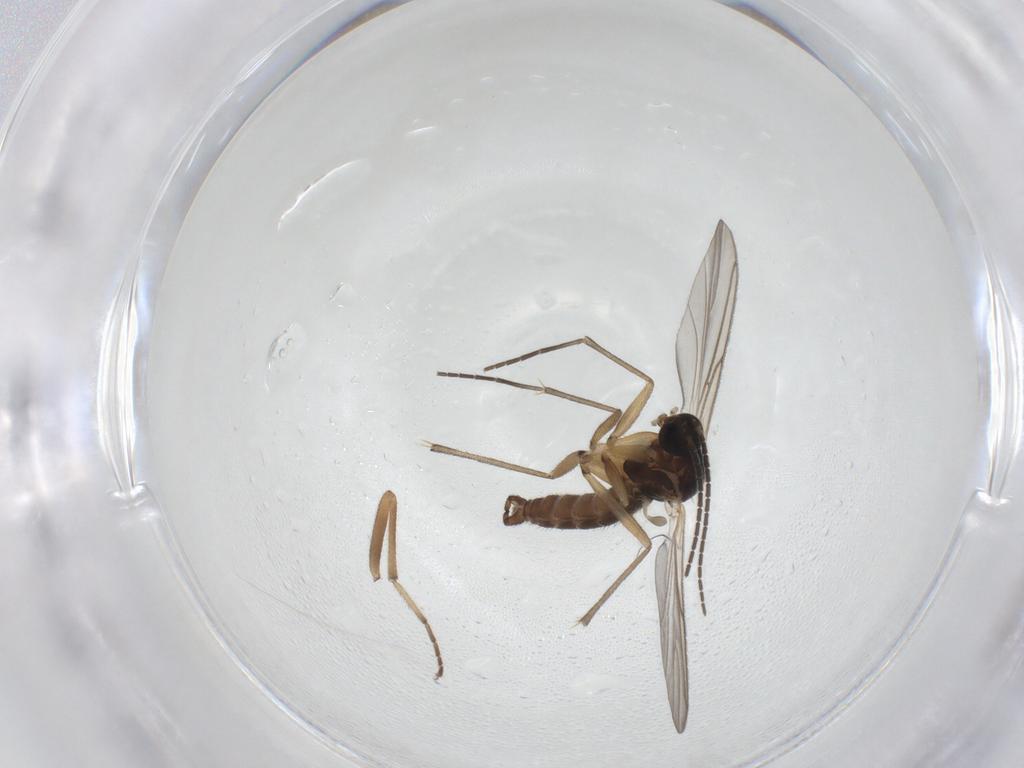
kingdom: Animalia
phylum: Arthropoda
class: Insecta
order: Diptera
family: Hybotidae
